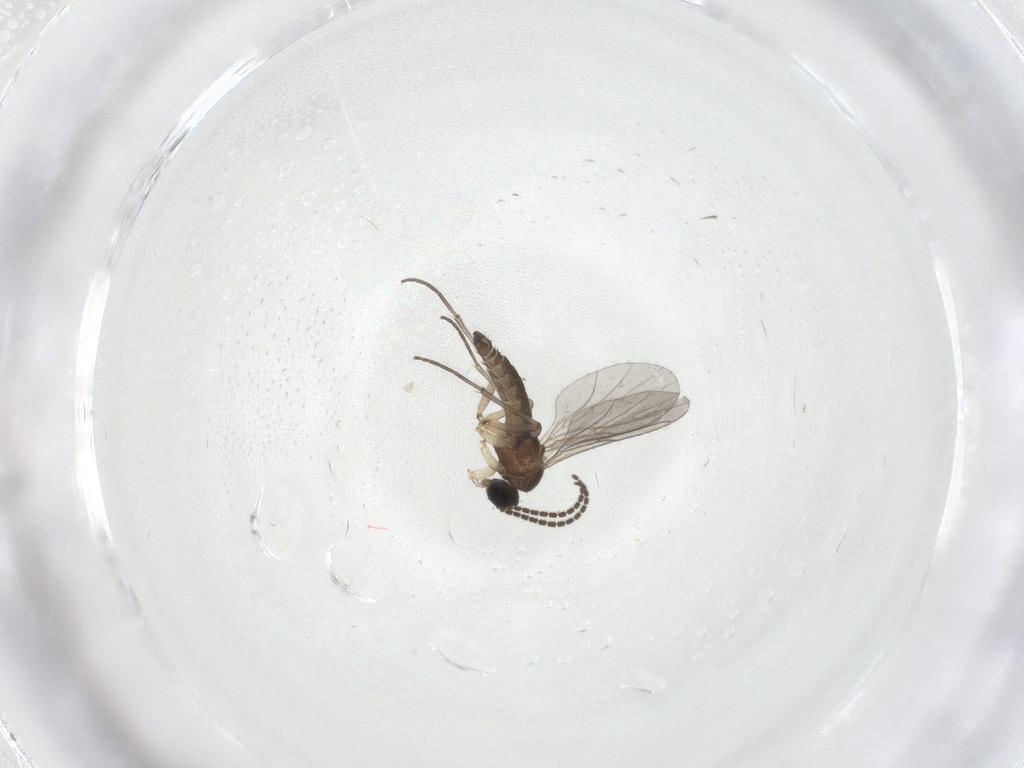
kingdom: Animalia
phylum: Arthropoda
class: Insecta
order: Diptera
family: Sciaridae
